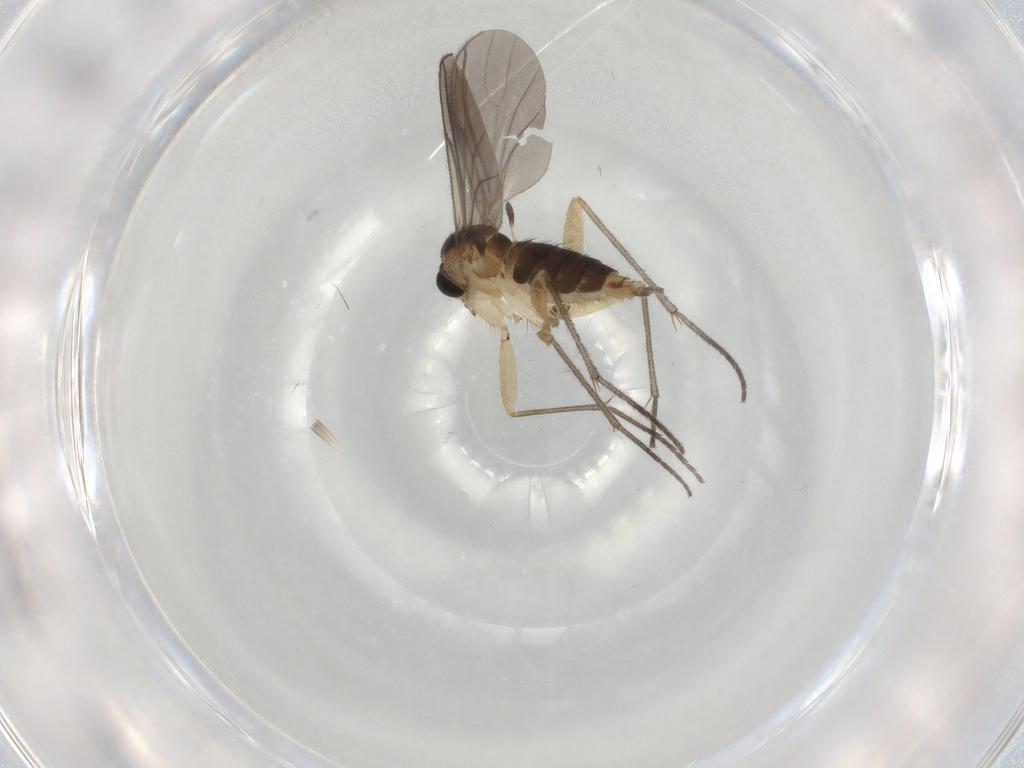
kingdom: Animalia
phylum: Arthropoda
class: Insecta
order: Diptera
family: Sciaridae
